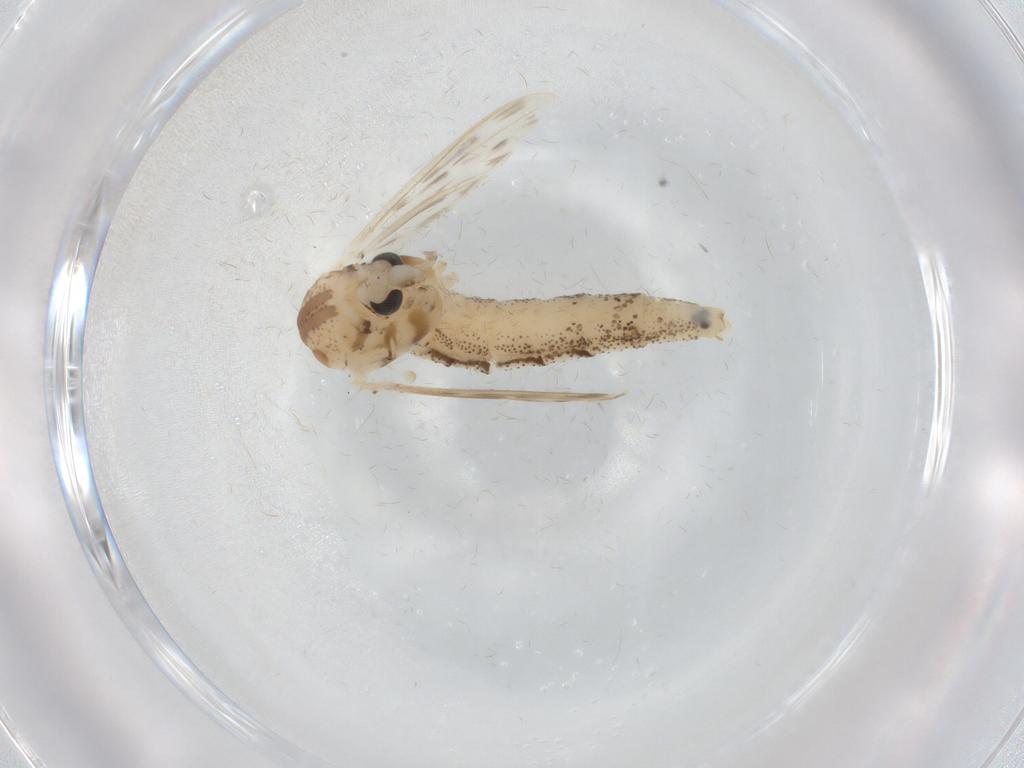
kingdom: Animalia
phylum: Arthropoda
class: Insecta
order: Diptera
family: Chaoboridae
